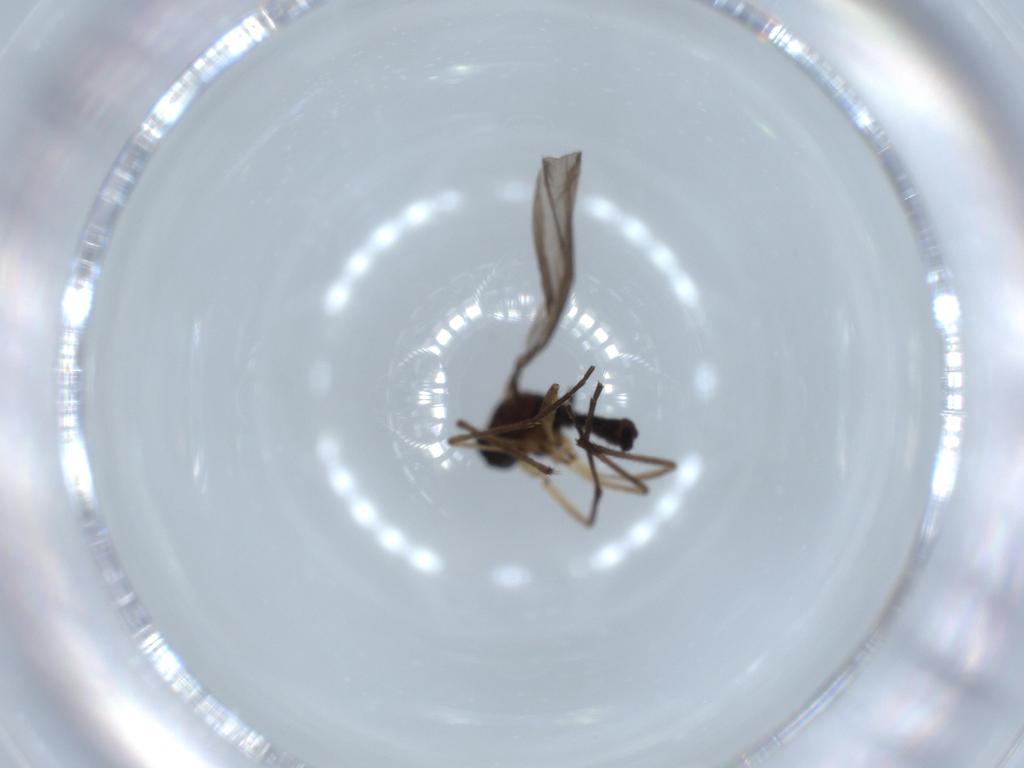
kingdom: Animalia
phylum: Arthropoda
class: Insecta
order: Diptera
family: Sciaridae
